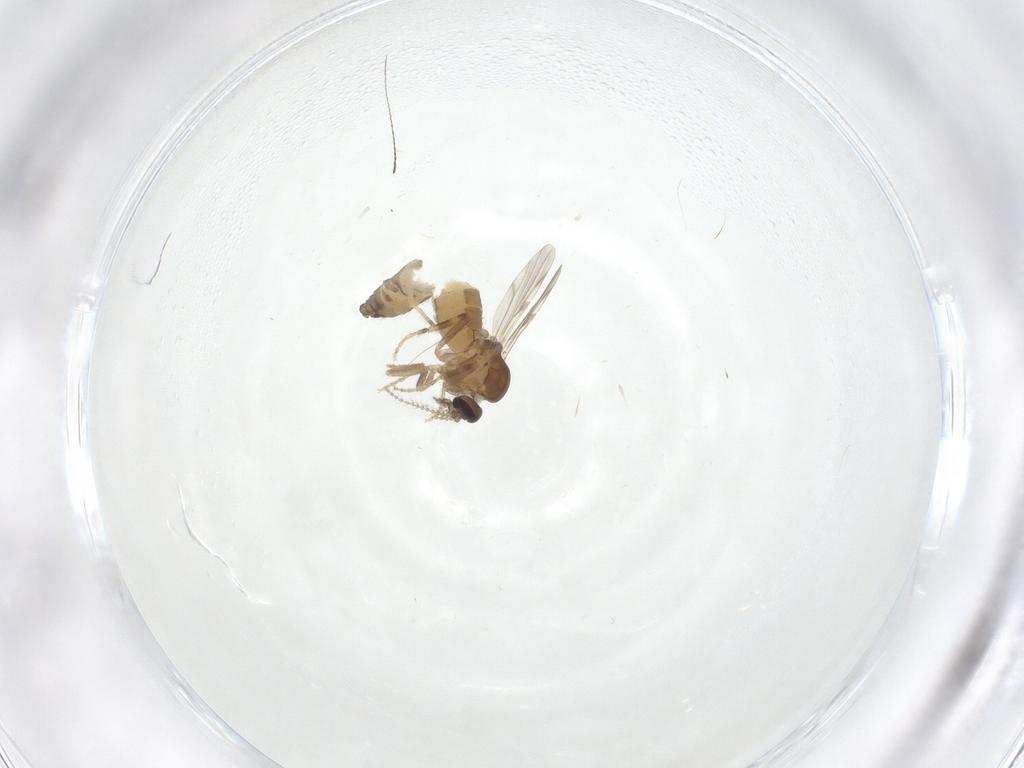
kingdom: Animalia
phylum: Arthropoda
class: Insecta
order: Diptera
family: Ceratopogonidae
